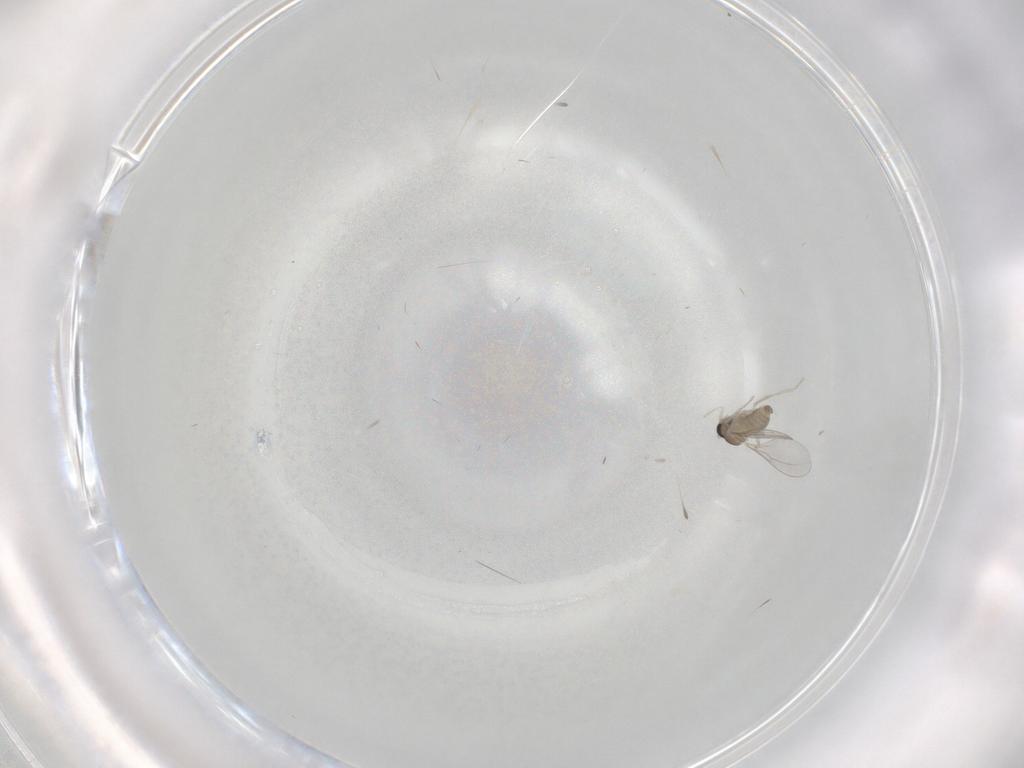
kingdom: Animalia
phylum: Arthropoda
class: Insecta
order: Diptera
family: Cecidomyiidae
